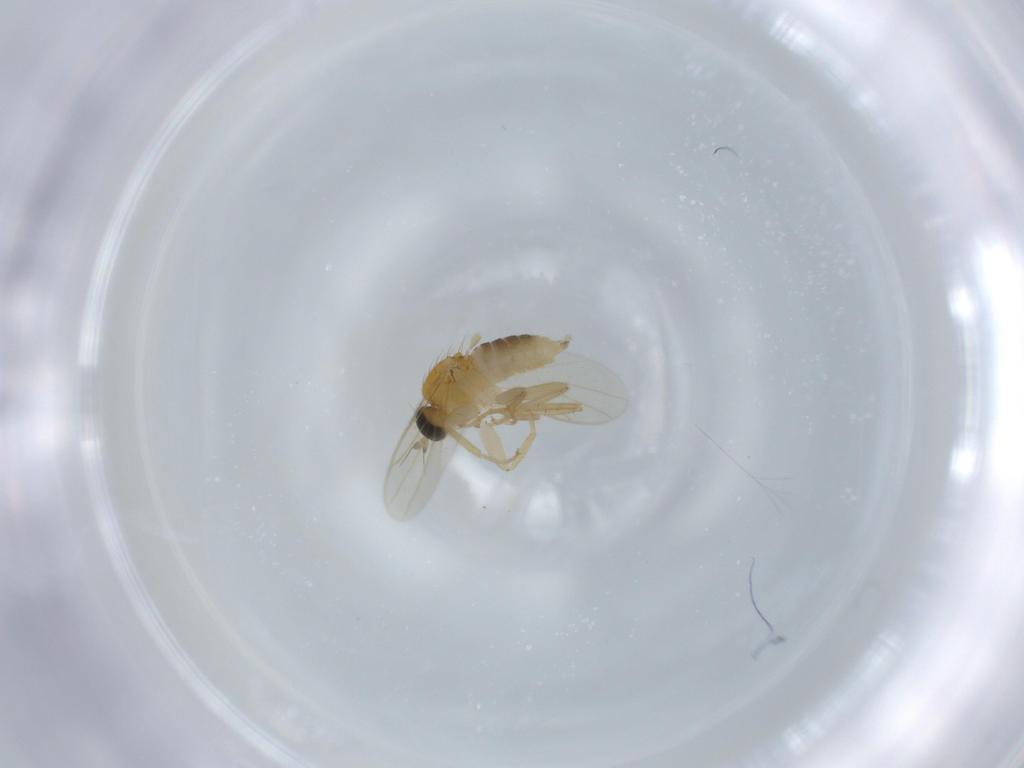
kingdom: Animalia
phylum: Arthropoda
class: Insecta
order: Diptera
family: Hybotidae
